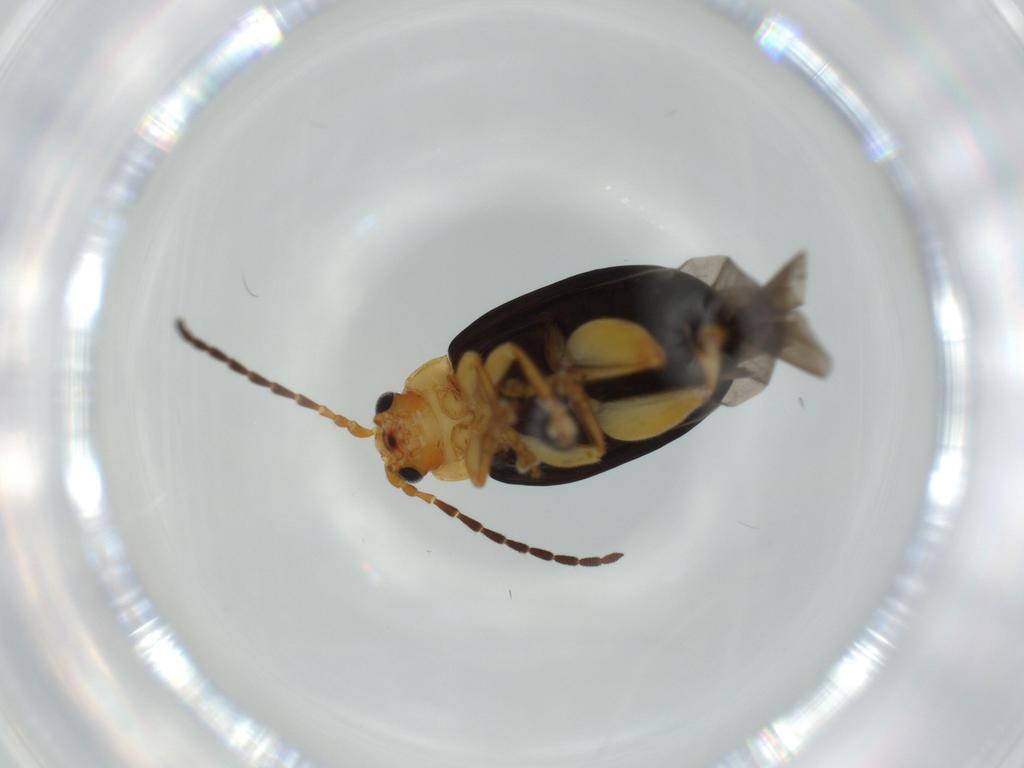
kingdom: Animalia
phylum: Arthropoda
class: Insecta
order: Coleoptera
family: Chrysomelidae
